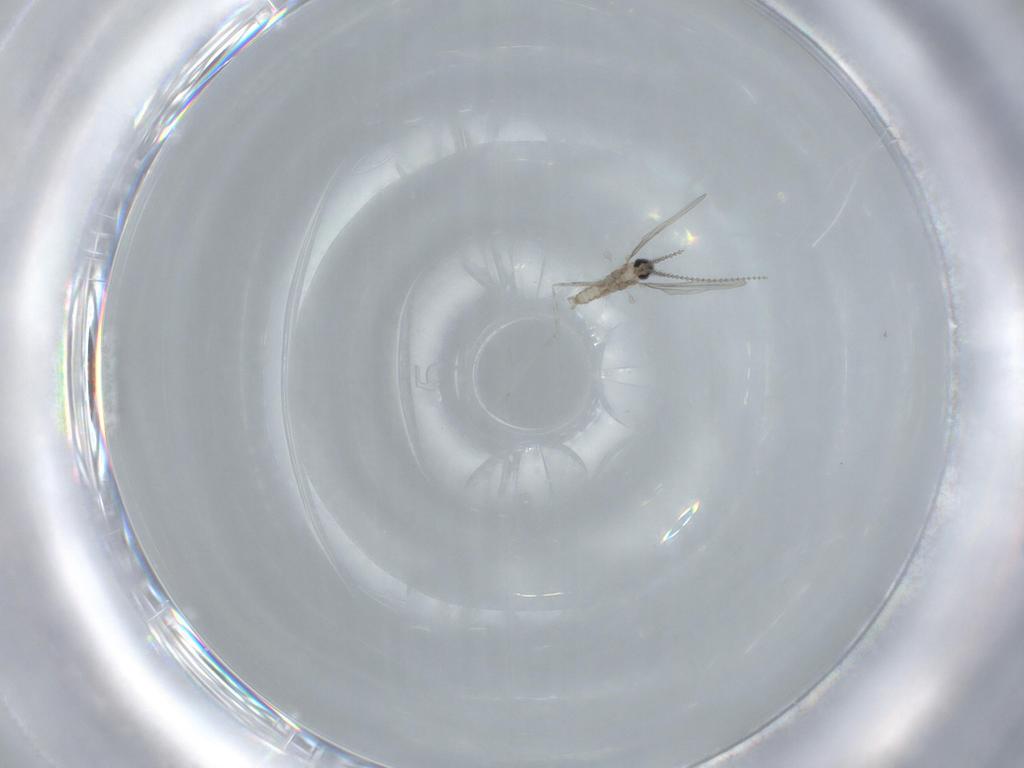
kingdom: Animalia
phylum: Arthropoda
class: Insecta
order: Diptera
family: Cecidomyiidae
